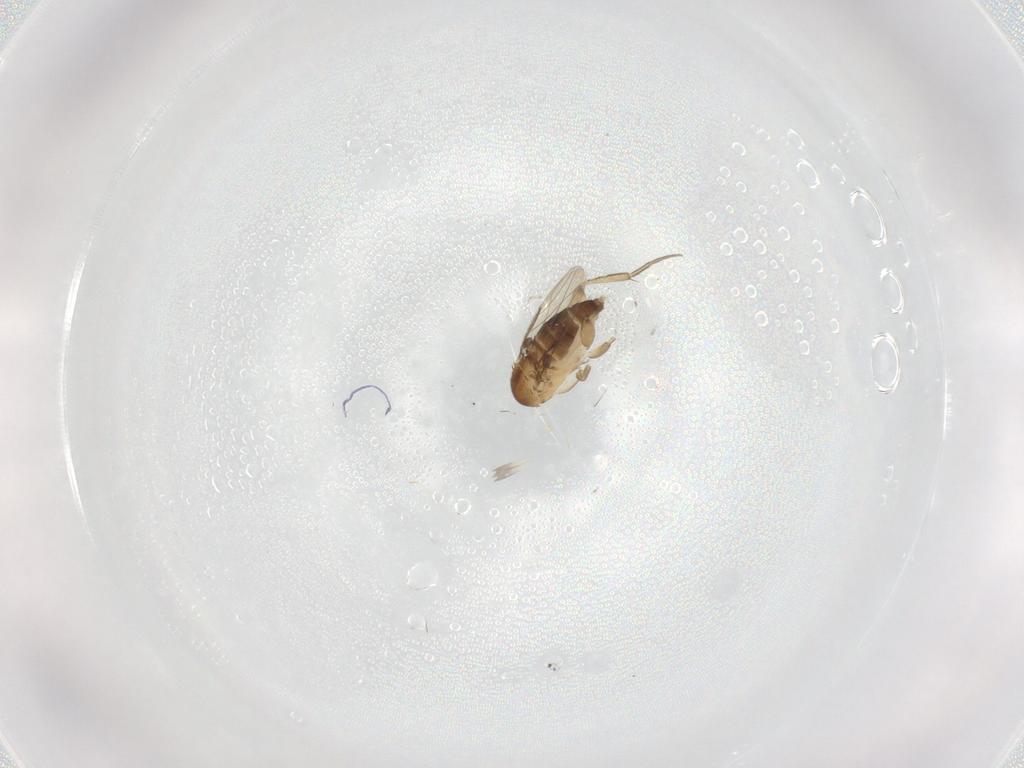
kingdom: Animalia
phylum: Arthropoda
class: Insecta
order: Diptera
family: Phoridae
